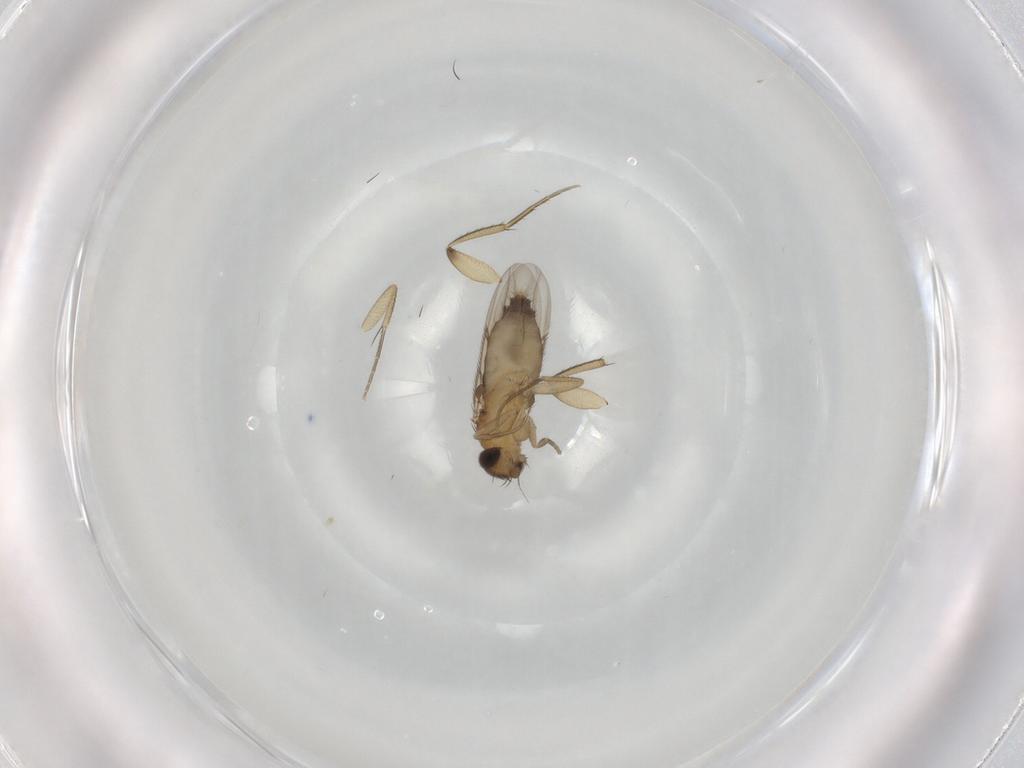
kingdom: Animalia
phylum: Arthropoda
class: Insecta
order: Diptera
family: Phoridae
